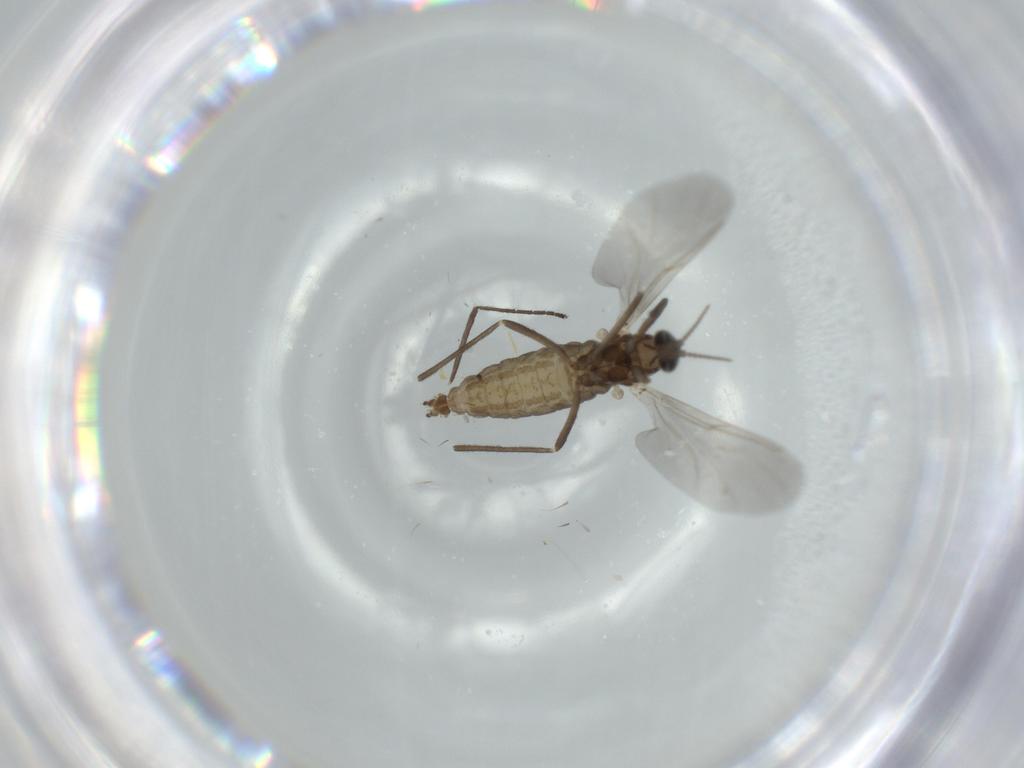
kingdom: Animalia
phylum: Arthropoda
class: Insecta
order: Diptera
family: Cecidomyiidae
